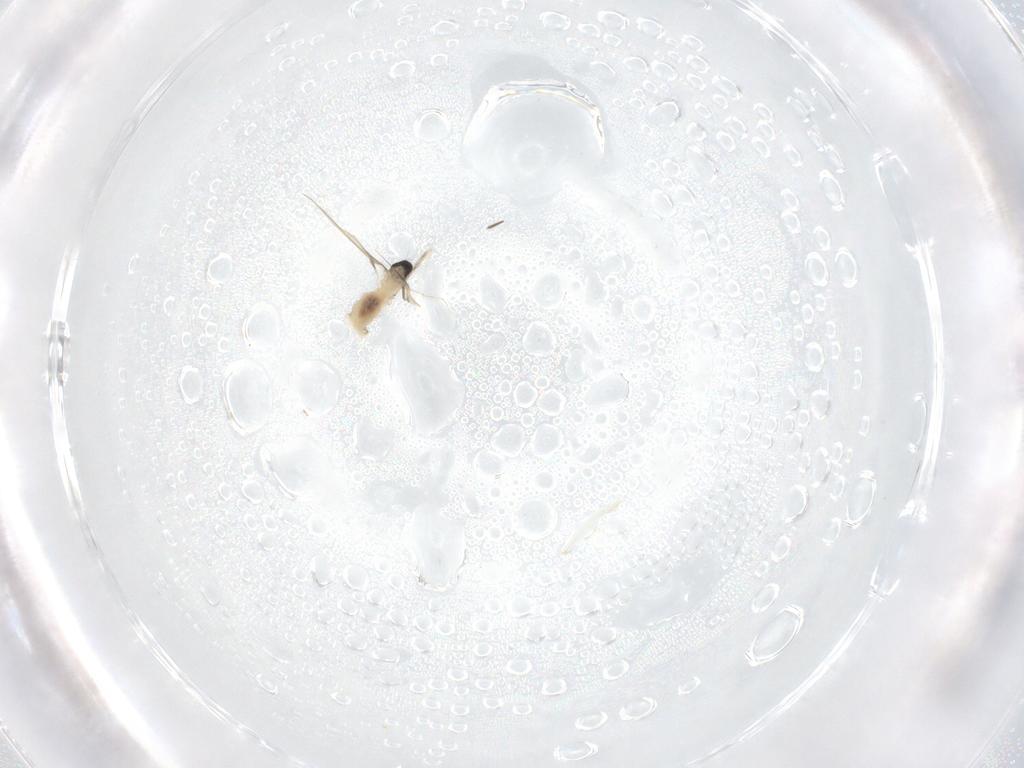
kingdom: Animalia
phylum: Arthropoda
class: Insecta
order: Diptera
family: Cecidomyiidae
